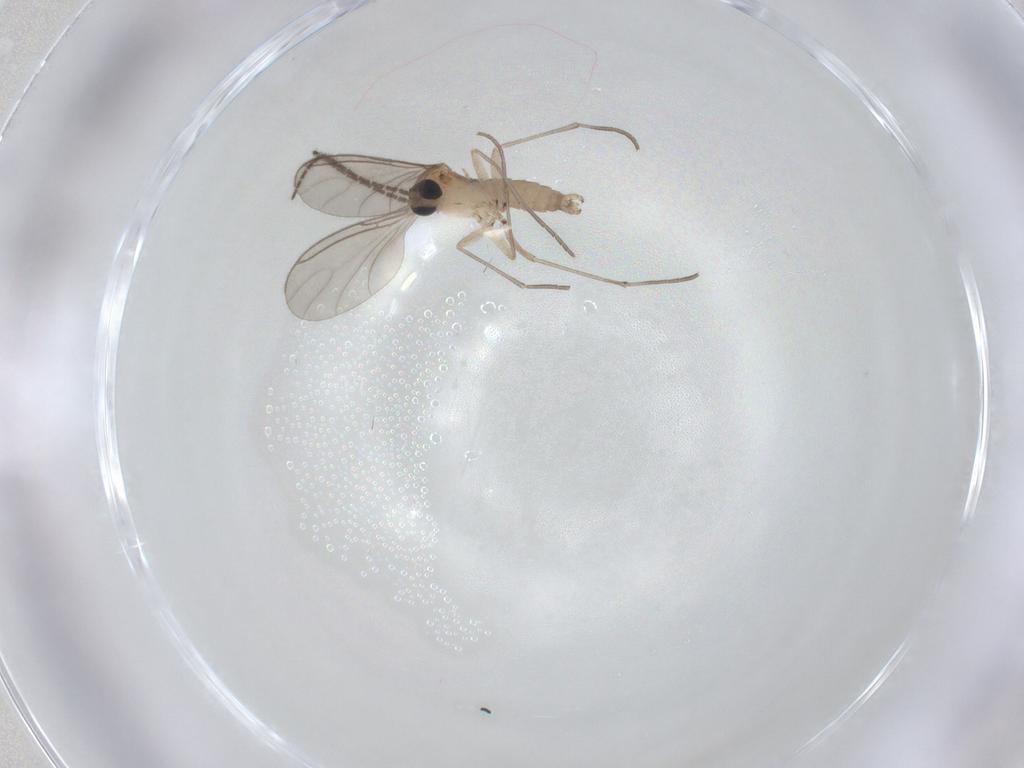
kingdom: Animalia
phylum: Arthropoda
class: Insecta
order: Diptera
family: Sciaridae
